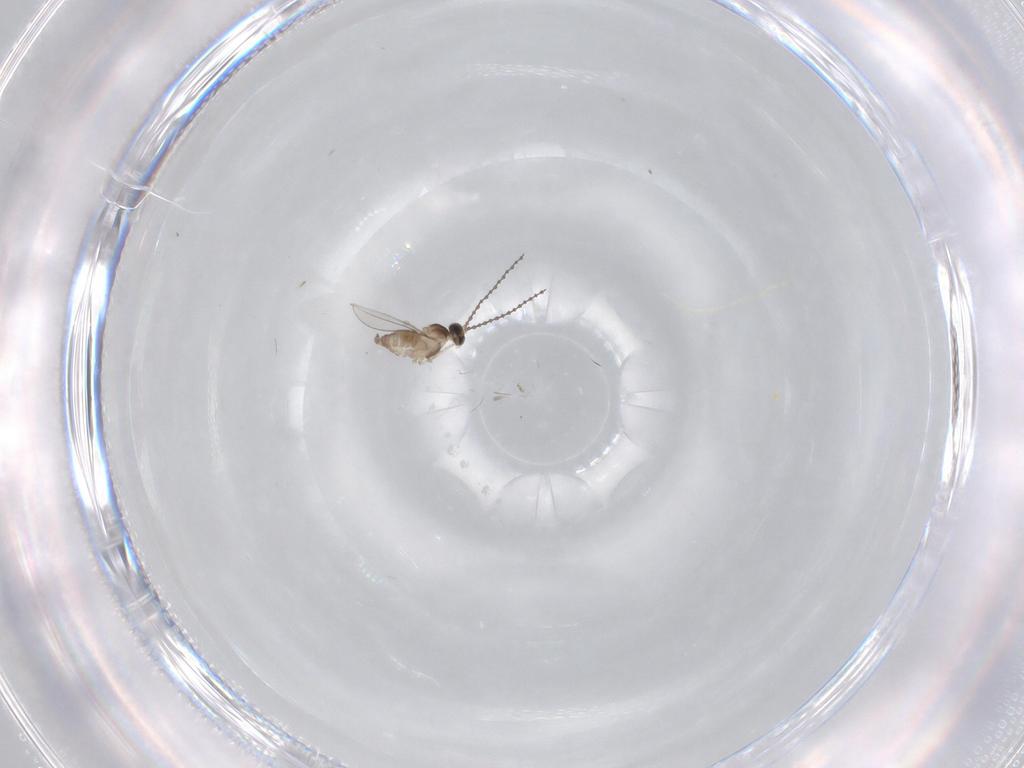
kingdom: Animalia
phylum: Arthropoda
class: Insecta
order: Diptera
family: Cecidomyiidae
